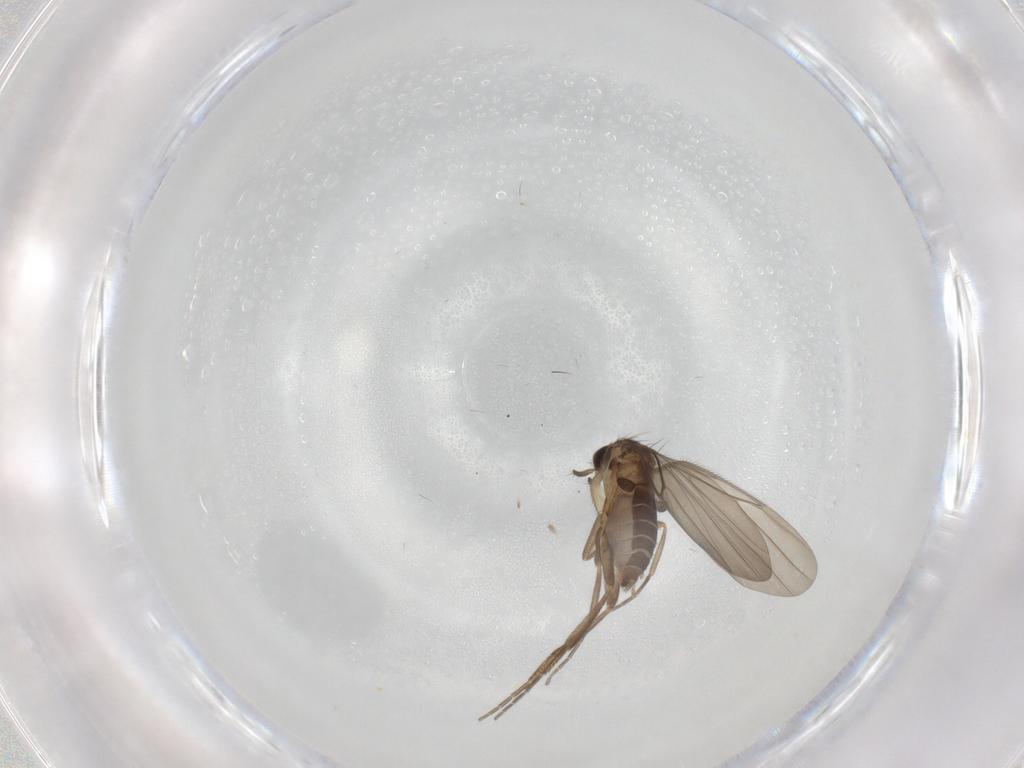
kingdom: Animalia
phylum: Arthropoda
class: Insecta
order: Diptera
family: Phoridae
